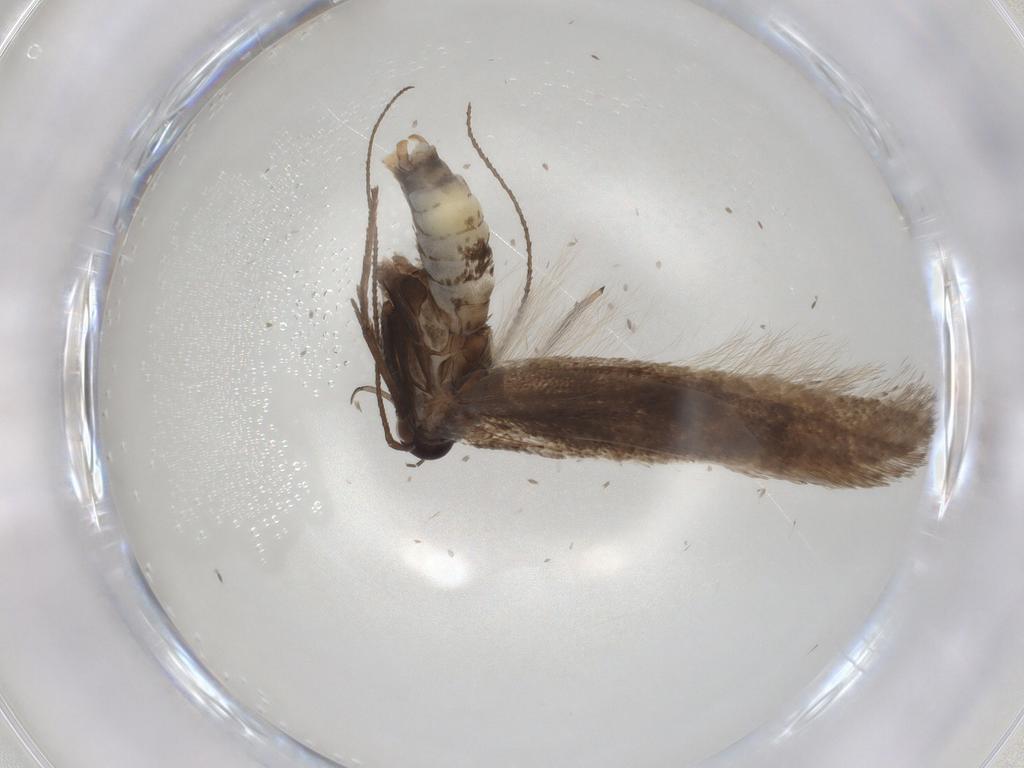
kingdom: Animalia
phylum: Arthropoda
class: Insecta
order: Lepidoptera
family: Gelechiidae
